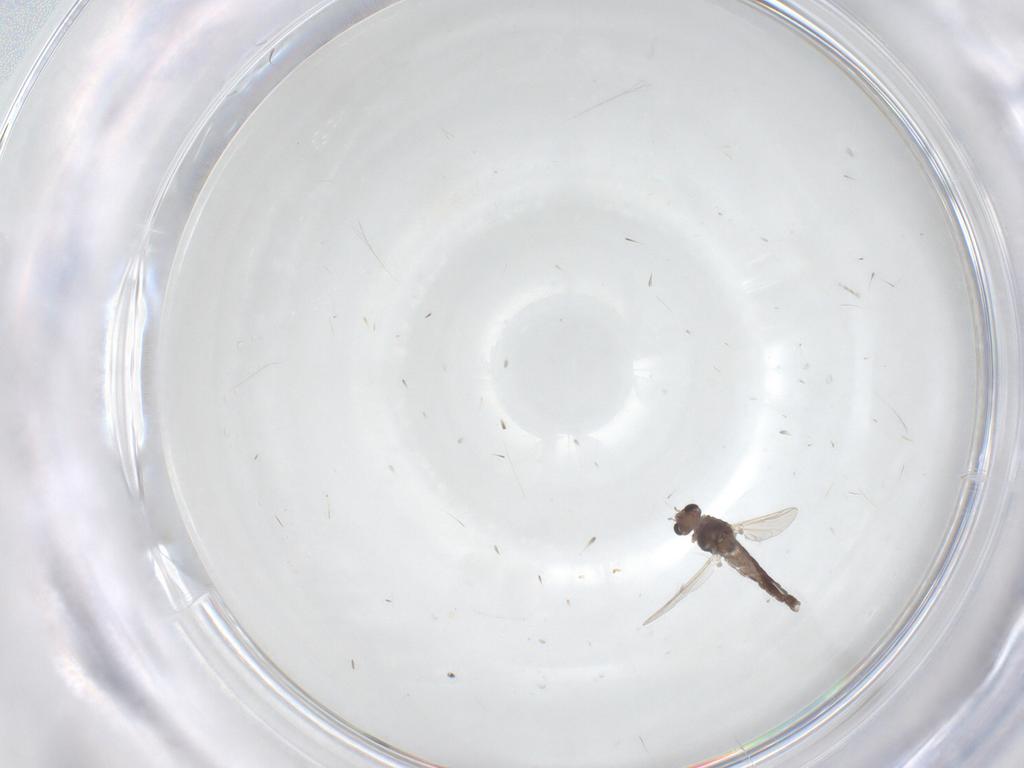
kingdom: Animalia
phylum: Arthropoda
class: Insecta
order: Diptera
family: Chironomidae
